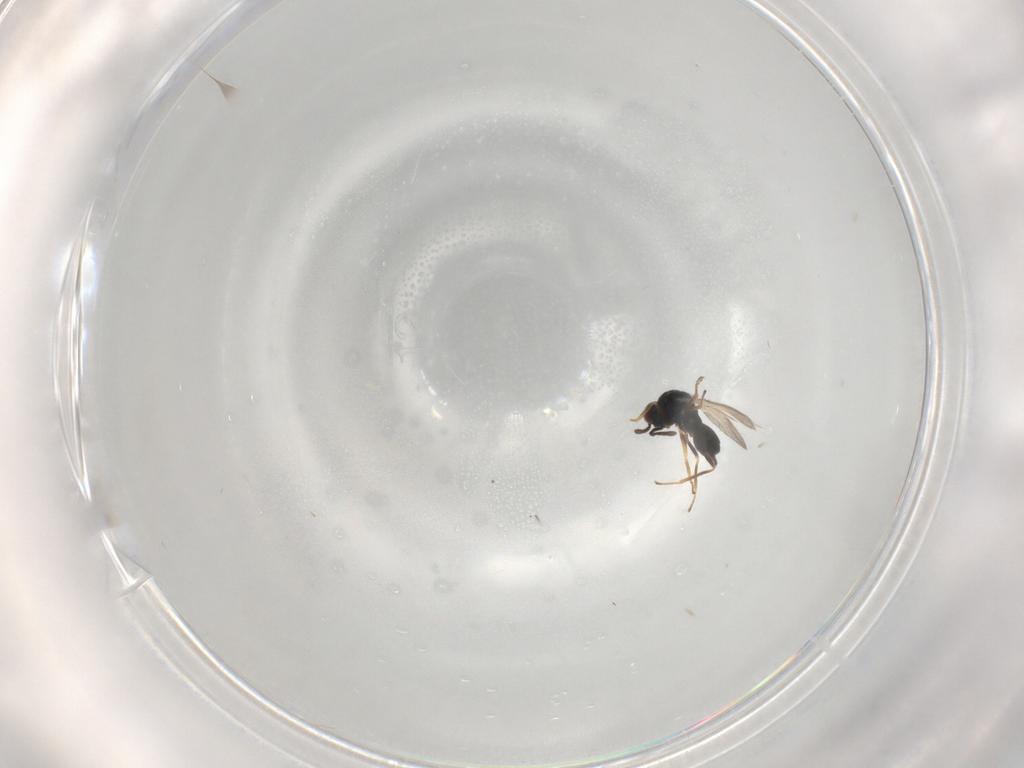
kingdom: Animalia
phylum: Arthropoda
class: Insecta
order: Hymenoptera
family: Chalcidoidea_incertae_sedis
